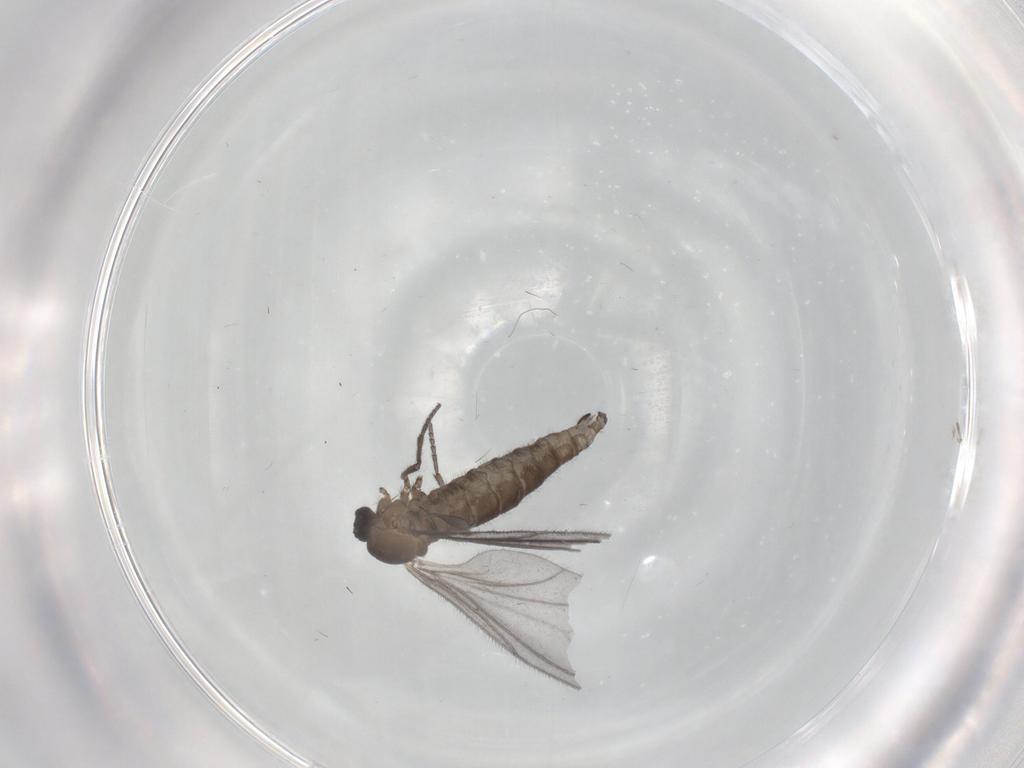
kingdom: Animalia
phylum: Arthropoda
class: Insecta
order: Diptera
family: Sciaridae
